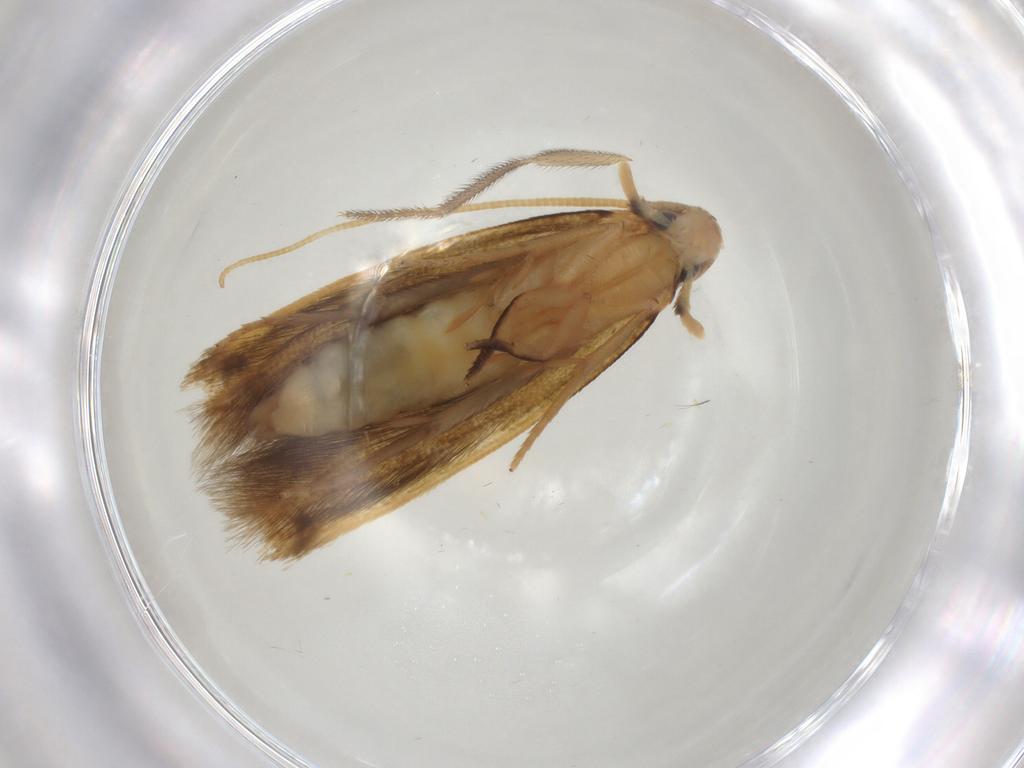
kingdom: Animalia
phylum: Arthropoda
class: Insecta
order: Lepidoptera
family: Tineidae
